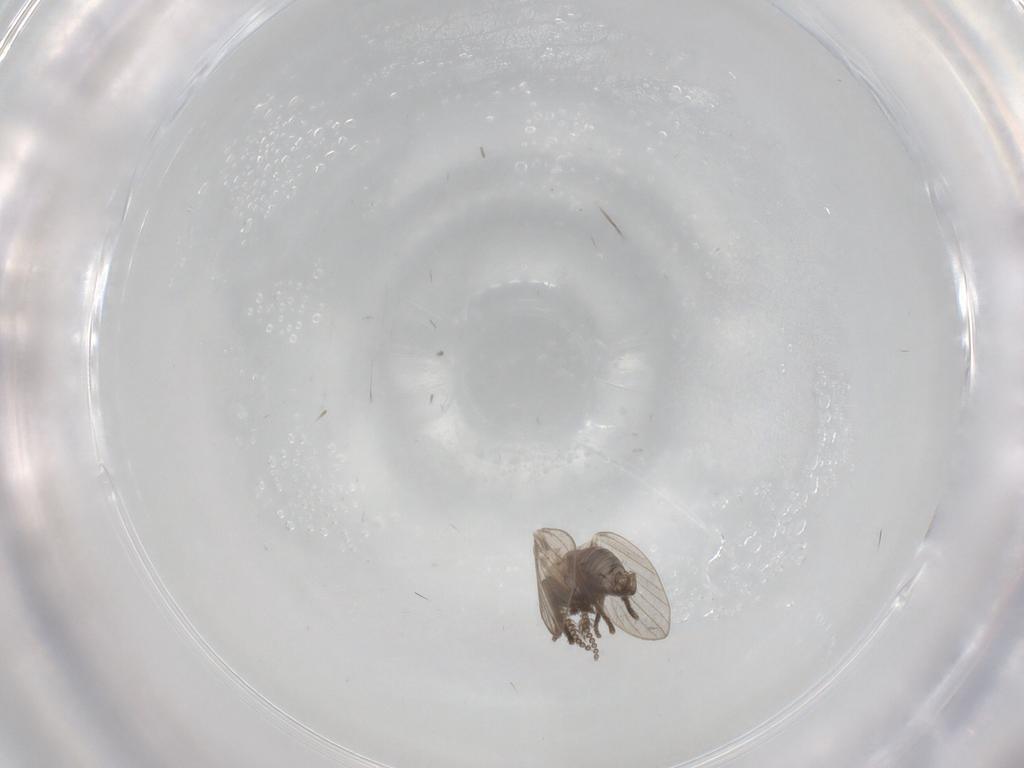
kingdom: Animalia
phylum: Arthropoda
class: Insecta
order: Diptera
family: Psychodidae
